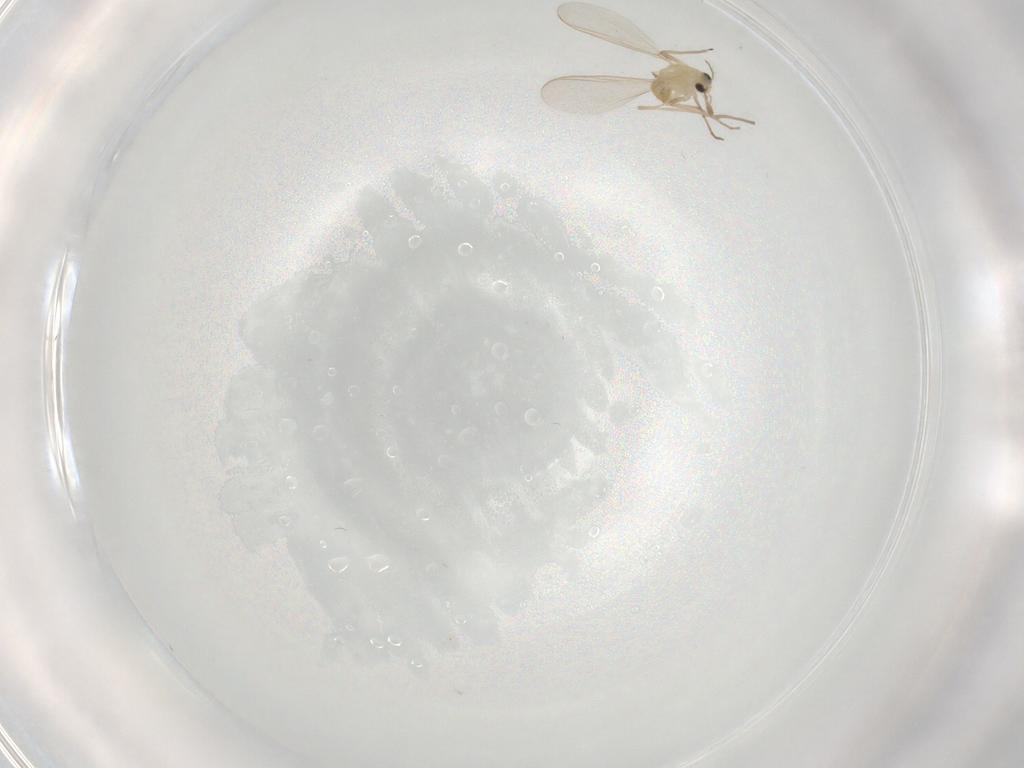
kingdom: Animalia
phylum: Arthropoda
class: Insecta
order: Diptera
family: Chironomidae
